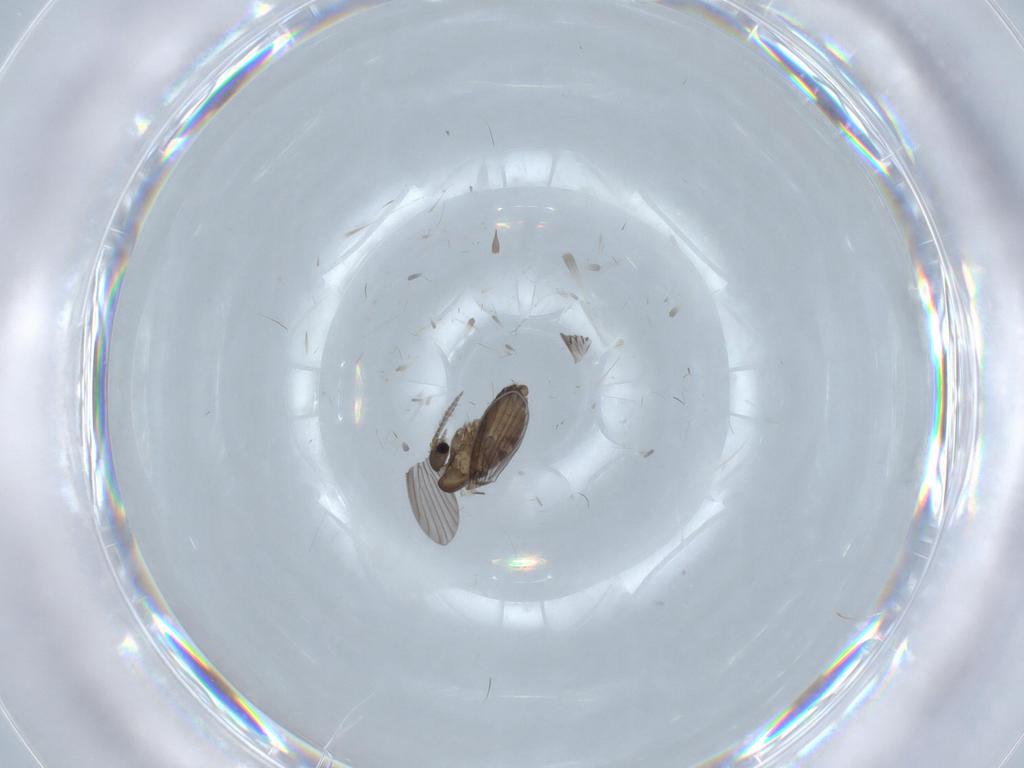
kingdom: Animalia
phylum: Arthropoda
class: Insecta
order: Diptera
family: Psychodidae
